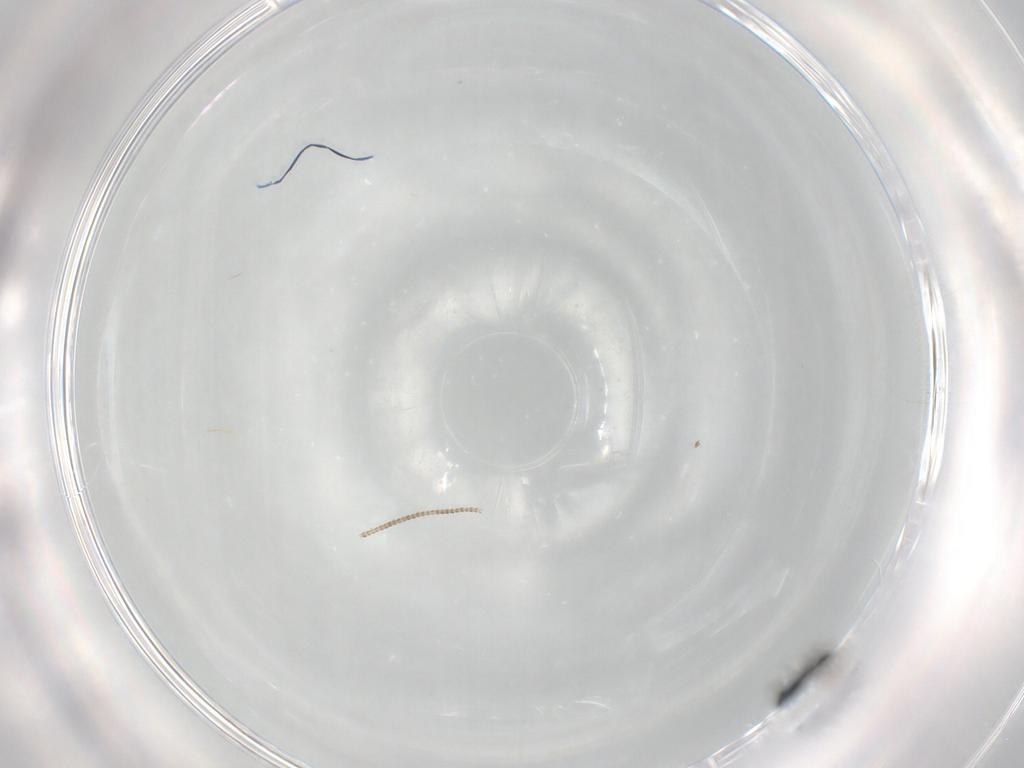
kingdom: Animalia
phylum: Arthropoda
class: Insecta
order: Hymenoptera
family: Scelionidae
